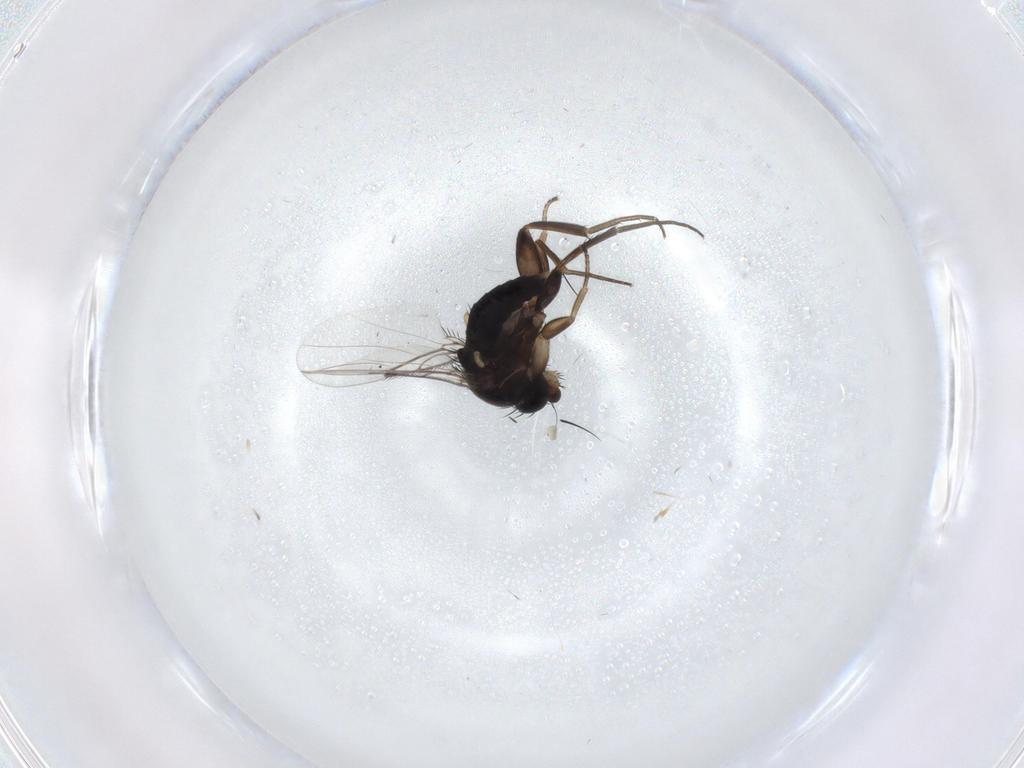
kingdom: Animalia
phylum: Arthropoda
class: Insecta
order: Diptera
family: Phoridae
